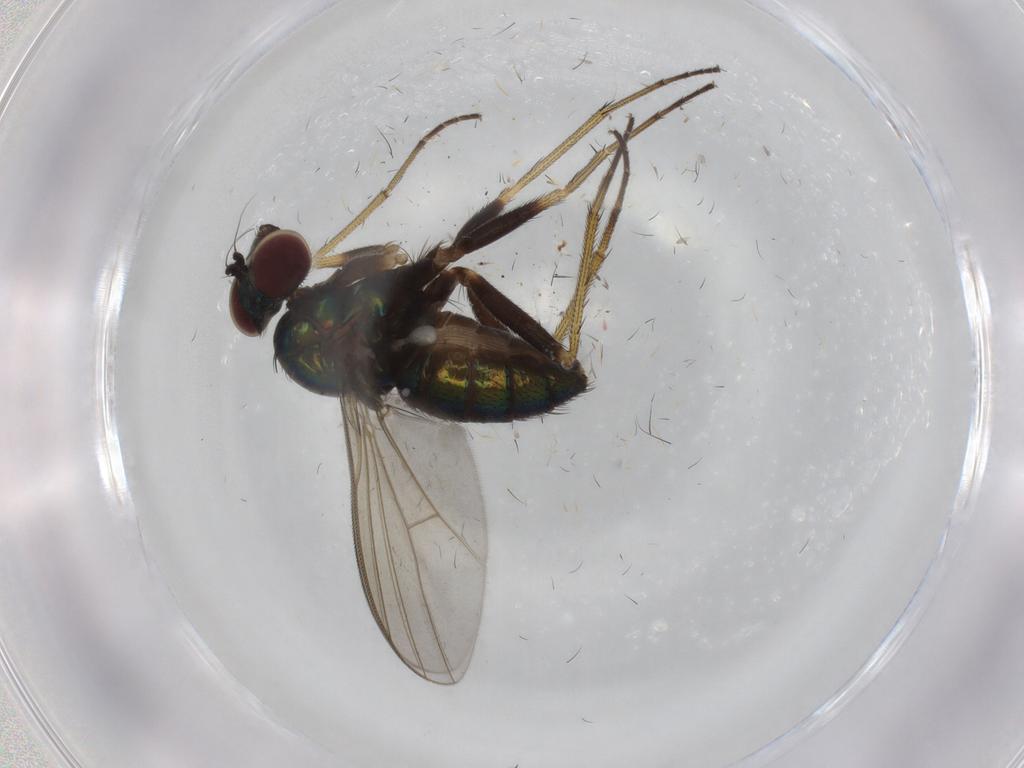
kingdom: Animalia
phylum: Arthropoda
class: Insecta
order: Diptera
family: Dolichopodidae
